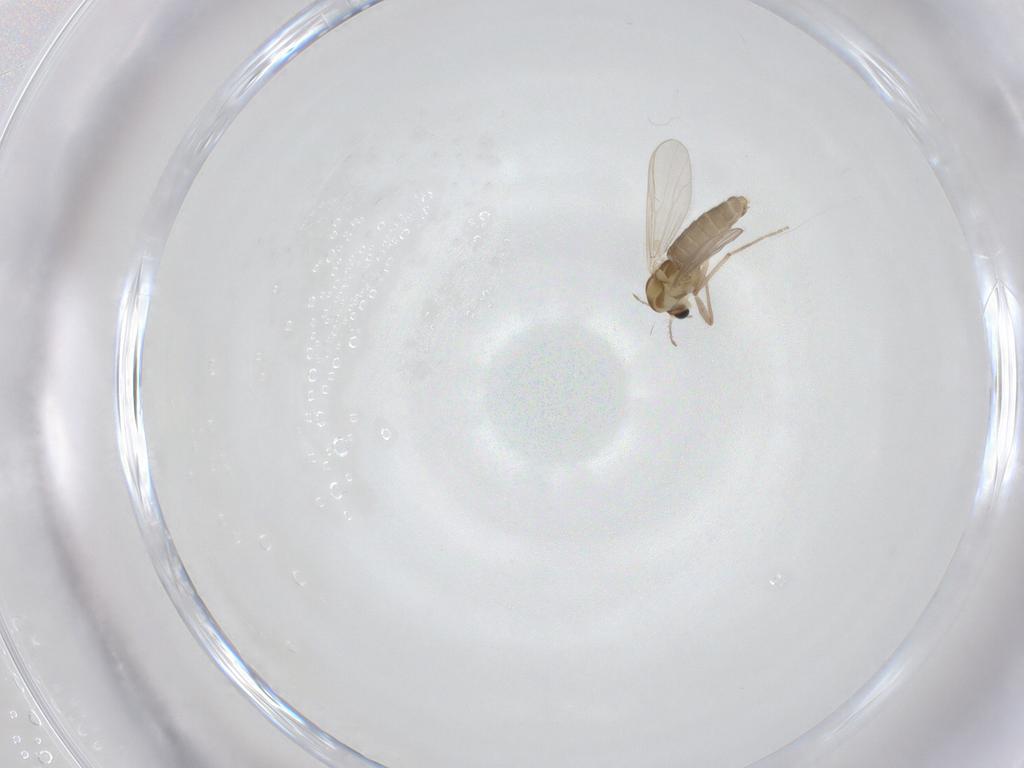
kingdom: Animalia
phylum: Arthropoda
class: Insecta
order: Diptera
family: Chironomidae
